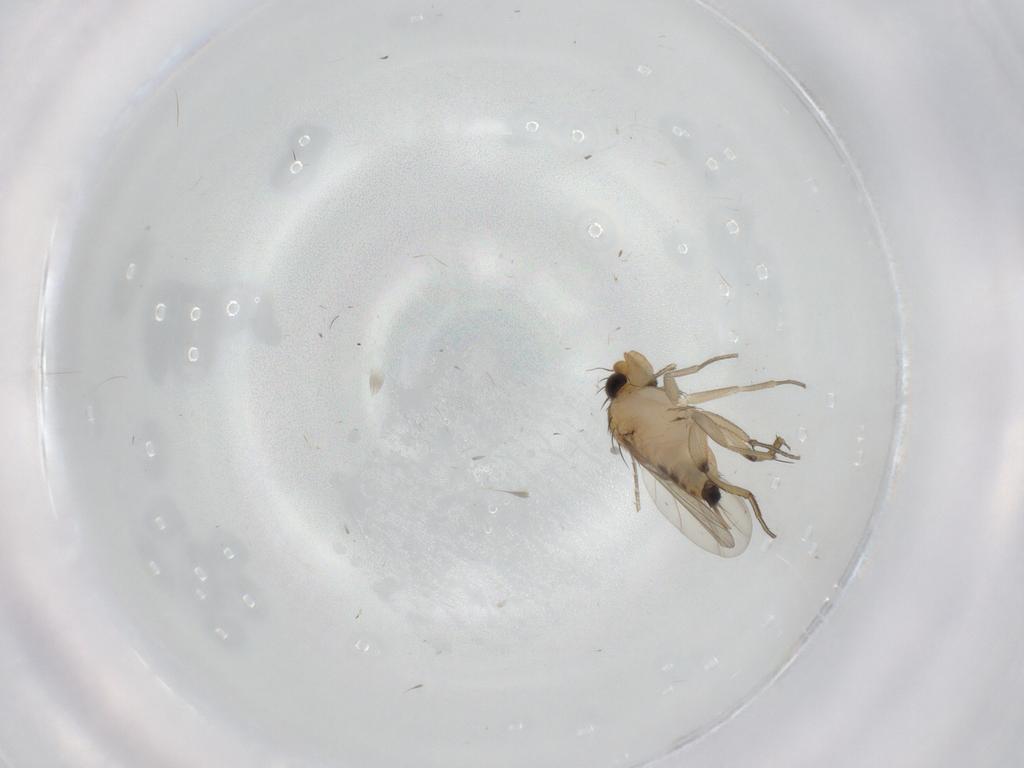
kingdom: Animalia
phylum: Arthropoda
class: Insecta
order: Diptera
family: Phoridae
